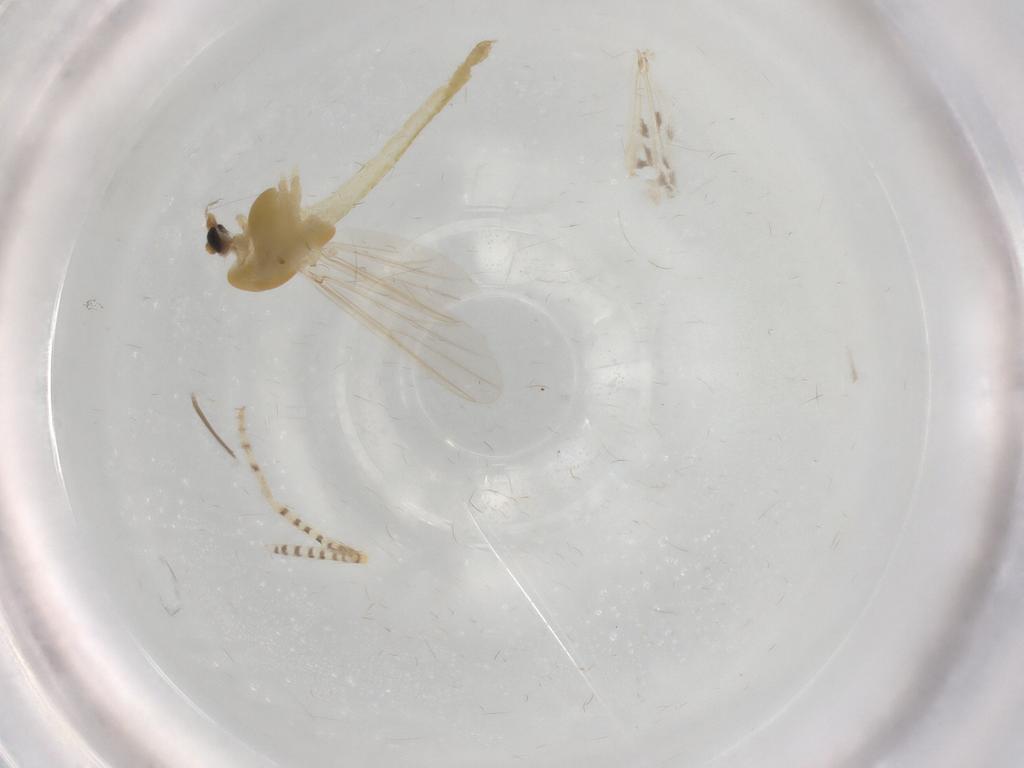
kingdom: Animalia
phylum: Arthropoda
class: Insecta
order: Diptera
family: Chironomidae
